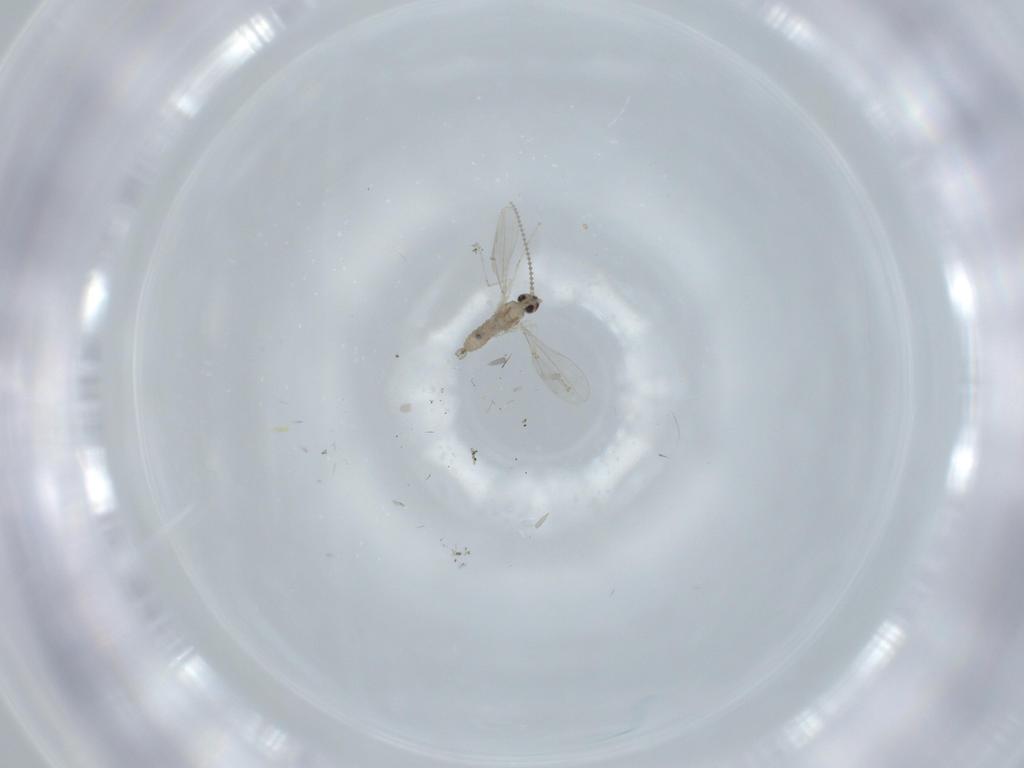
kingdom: Animalia
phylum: Arthropoda
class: Insecta
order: Diptera
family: Cecidomyiidae
